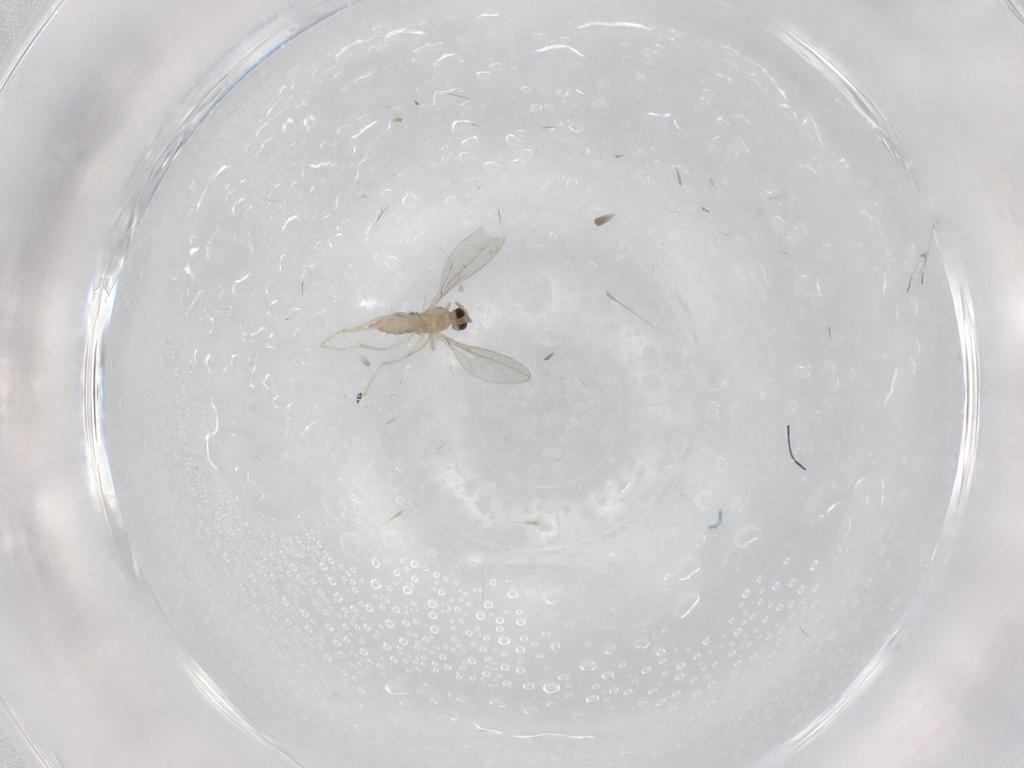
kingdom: Animalia
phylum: Arthropoda
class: Insecta
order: Diptera
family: Cecidomyiidae
